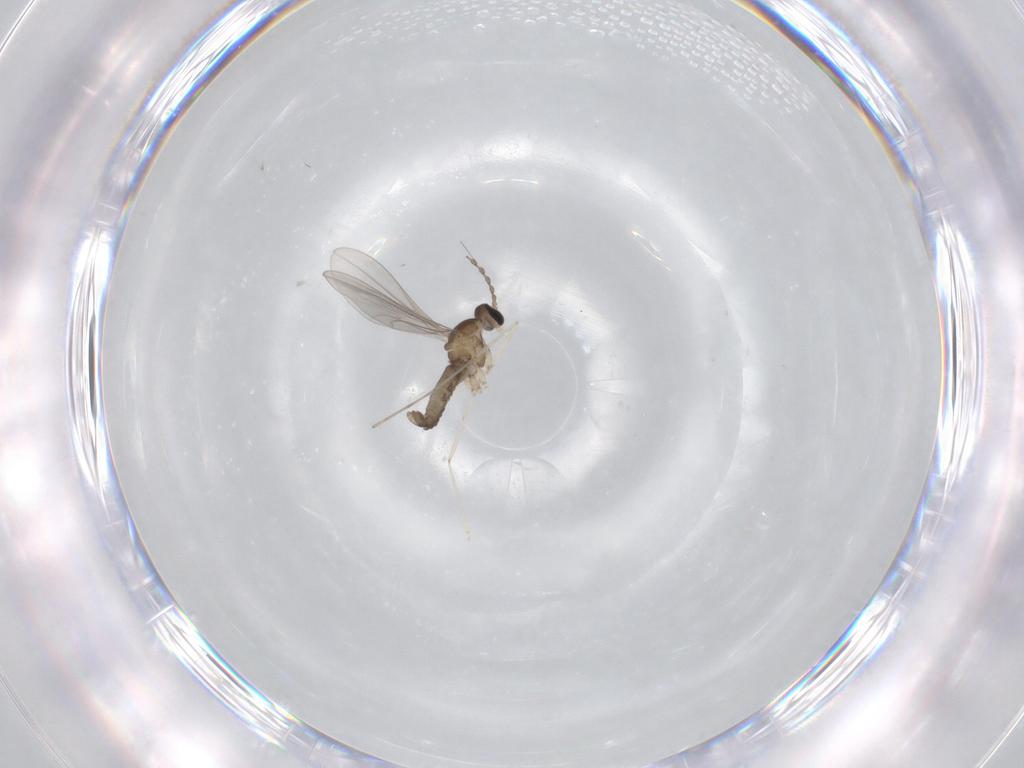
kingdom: Animalia
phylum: Arthropoda
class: Insecta
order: Diptera
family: Cecidomyiidae
